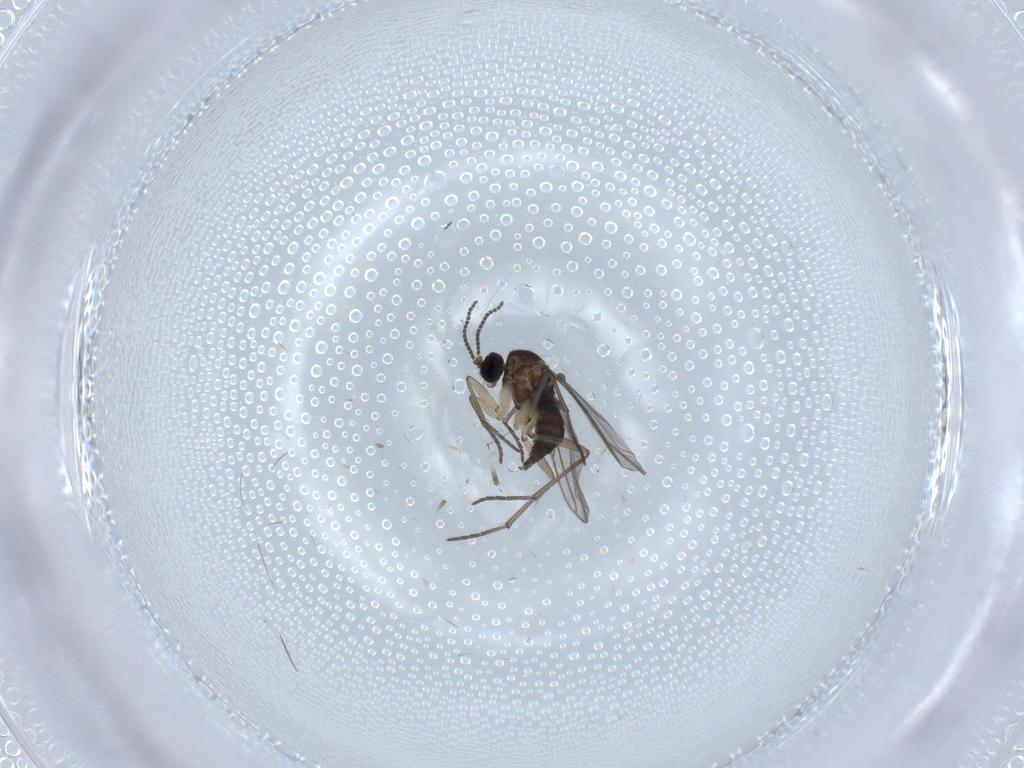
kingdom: Animalia
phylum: Arthropoda
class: Insecta
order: Diptera
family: Sciaridae
